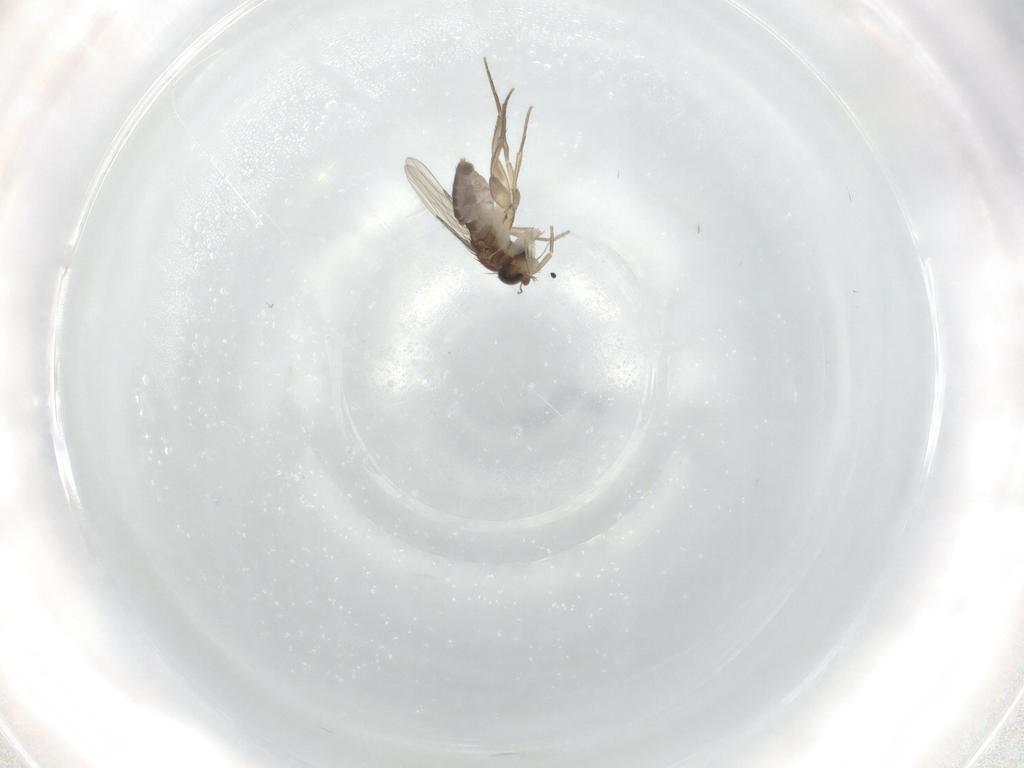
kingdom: Animalia
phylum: Arthropoda
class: Insecta
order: Diptera
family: Phoridae
